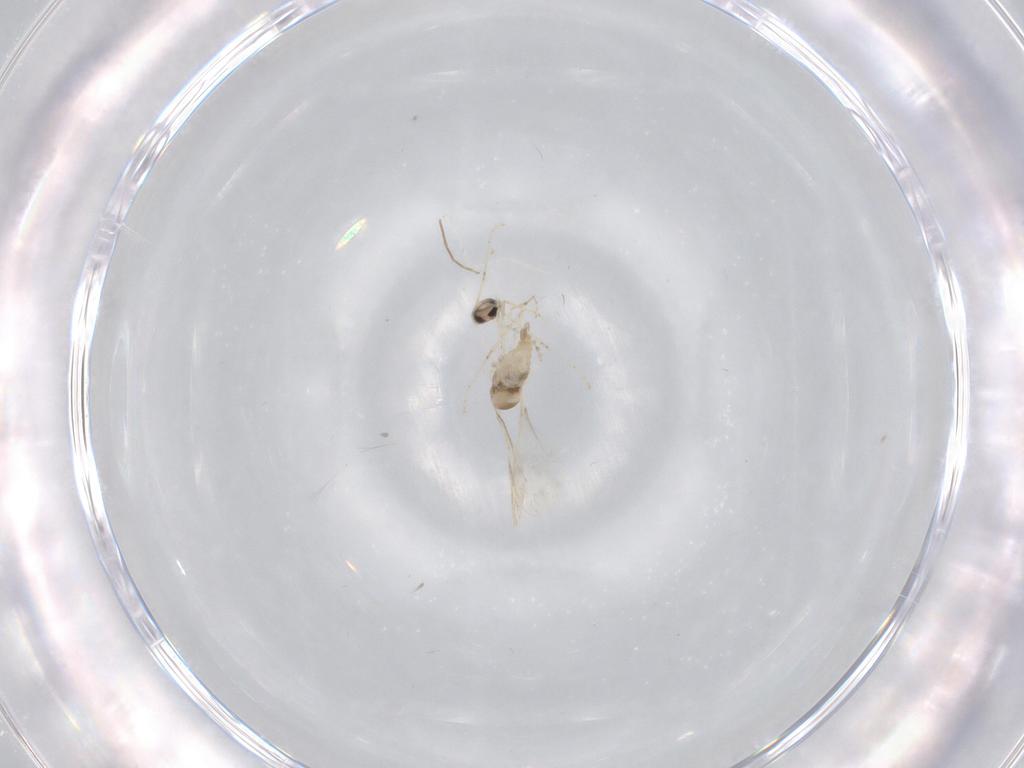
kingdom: Animalia
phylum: Arthropoda
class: Insecta
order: Diptera
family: Cecidomyiidae
